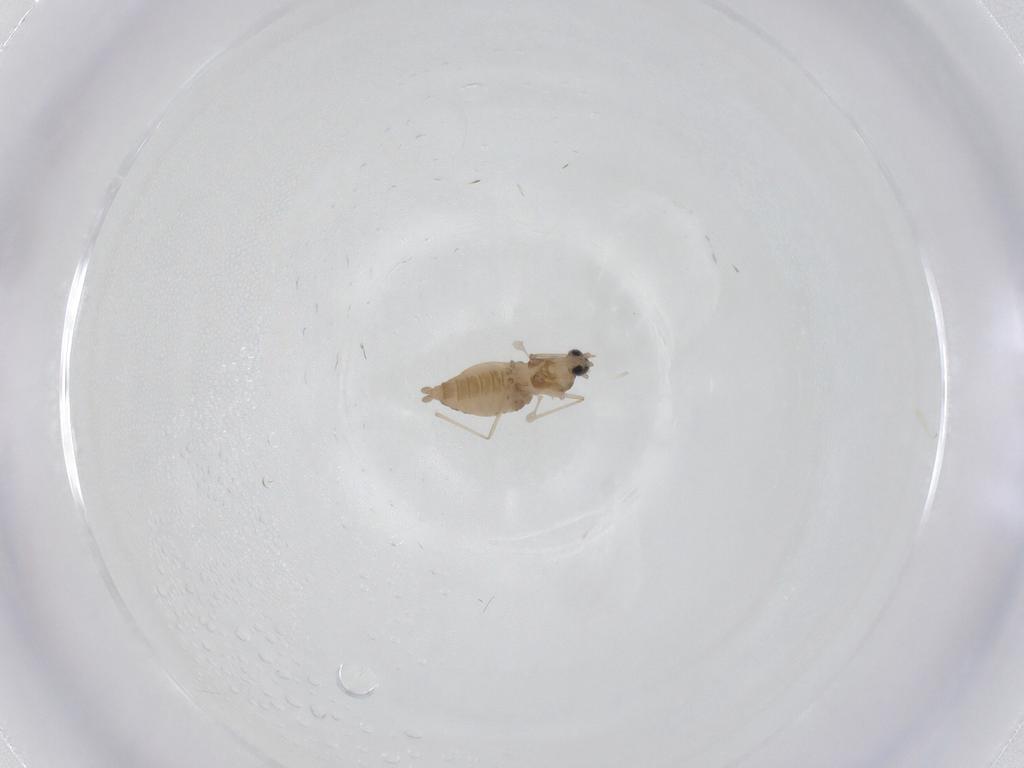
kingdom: Animalia
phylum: Arthropoda
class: Insecta
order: Diptera
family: Cecidomyiidae
